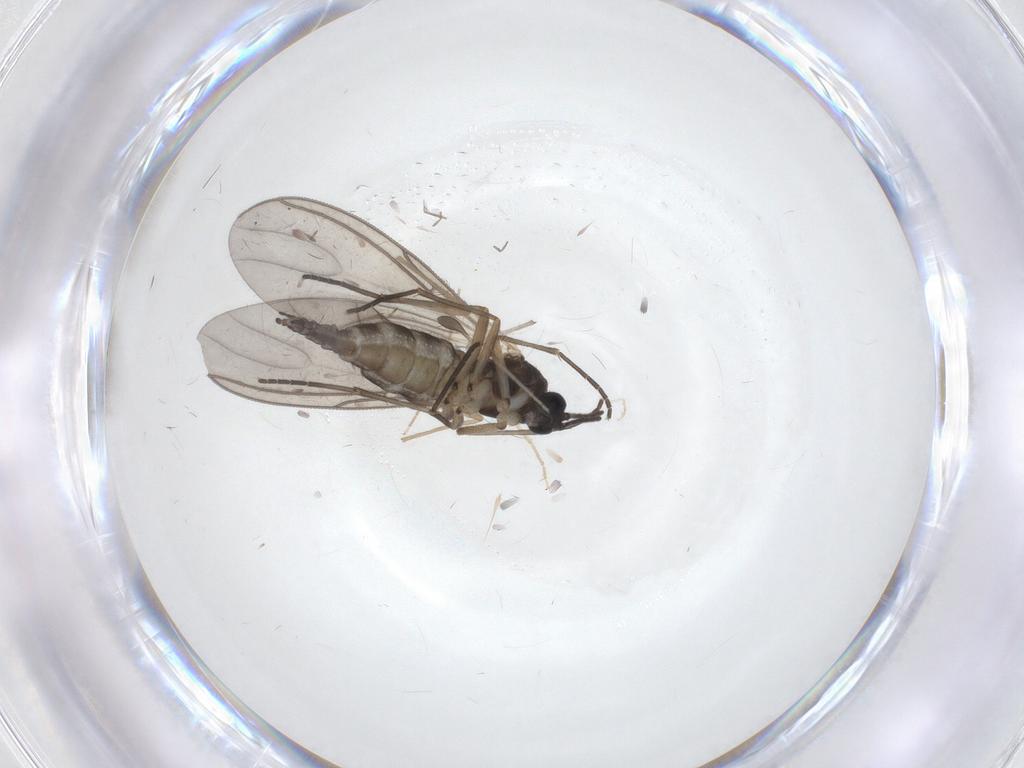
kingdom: Animalia
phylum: Arthropoda
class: Insecta
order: Diptera
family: Sciaridae
